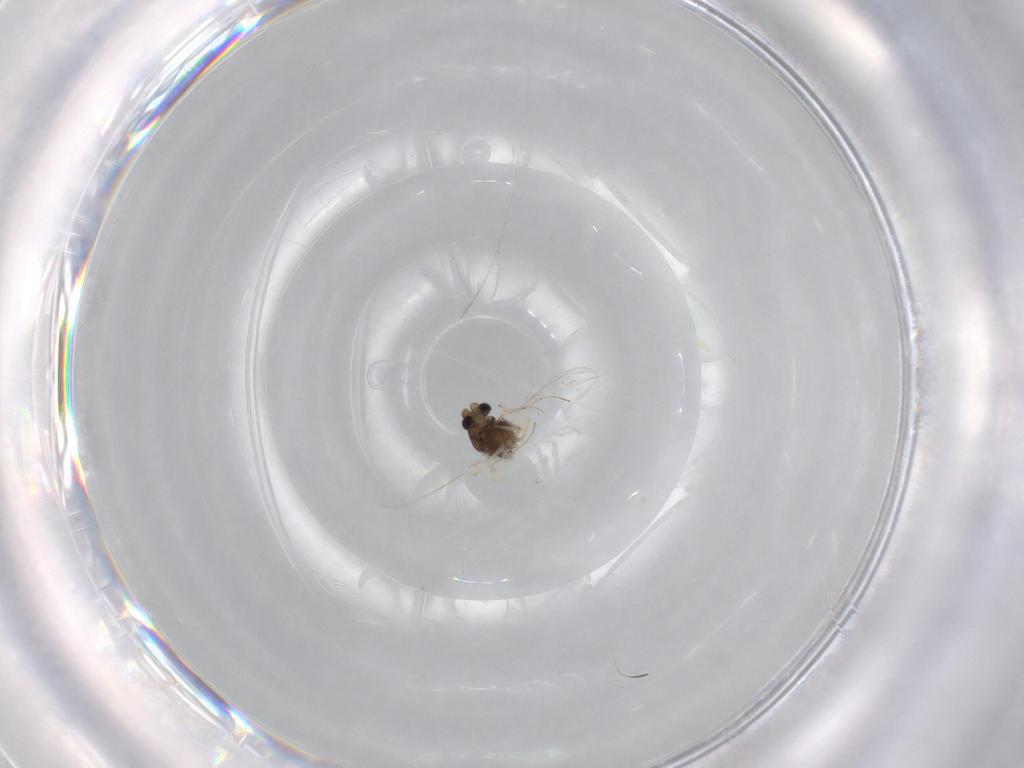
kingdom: Animalia
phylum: Arthropoda
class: Insecta
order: Diptera
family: Chironomidae
